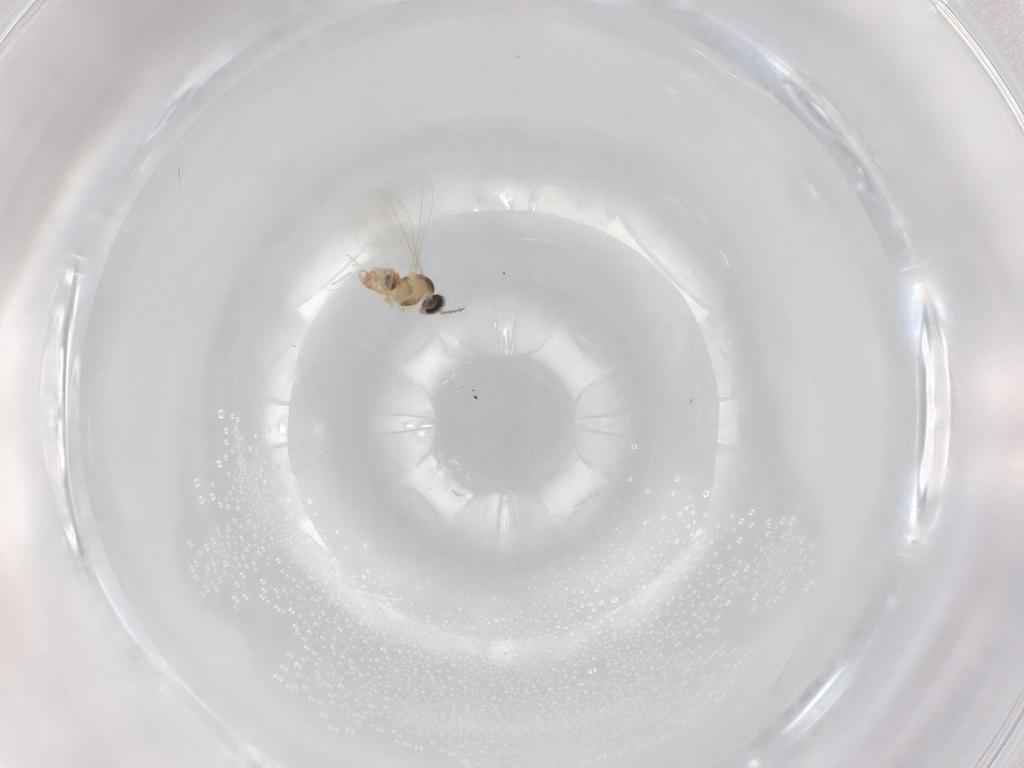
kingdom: Animalia
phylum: Arthropoda
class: Insecta
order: Diptera
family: Cecidomyiidae
